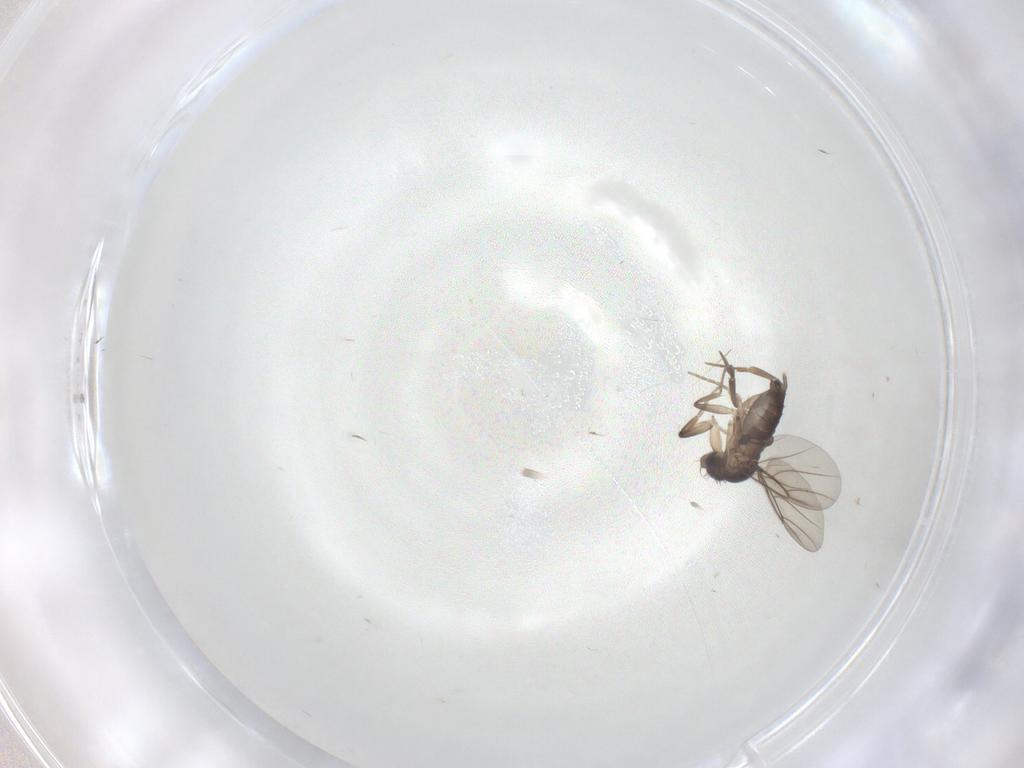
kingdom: Animalia
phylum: Arthropoda
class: Insecta
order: Diptera
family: Phoridae
